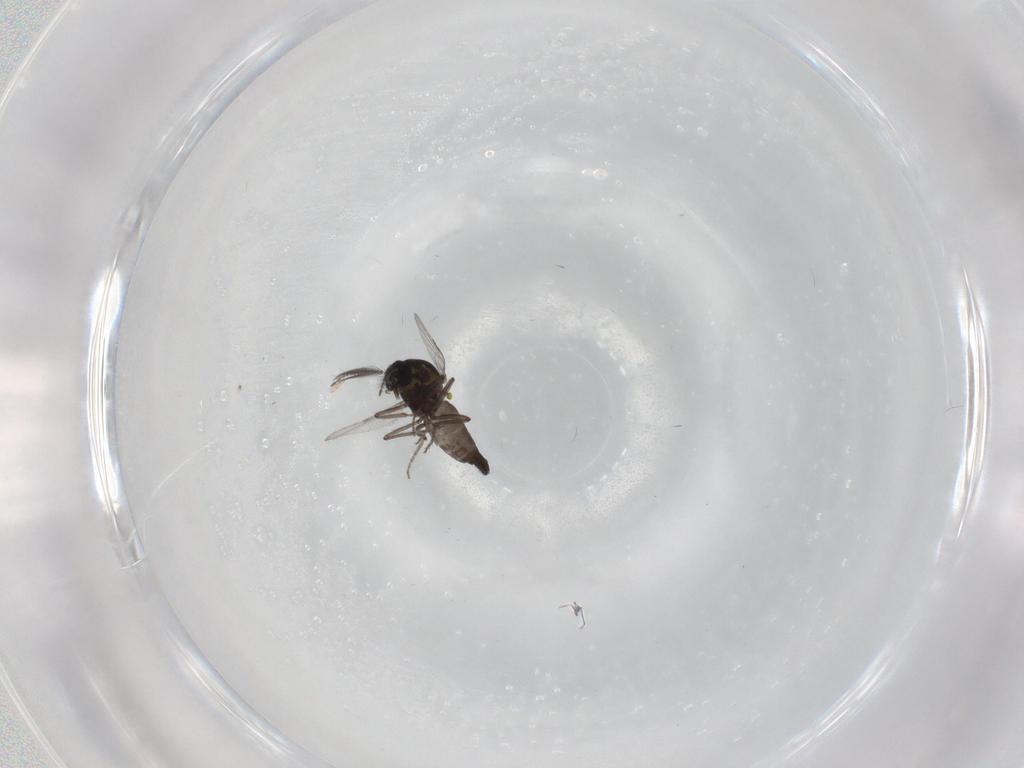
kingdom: Animalia
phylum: Arthropoda
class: Insecta
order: Diptera
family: Ceratopogonidae
